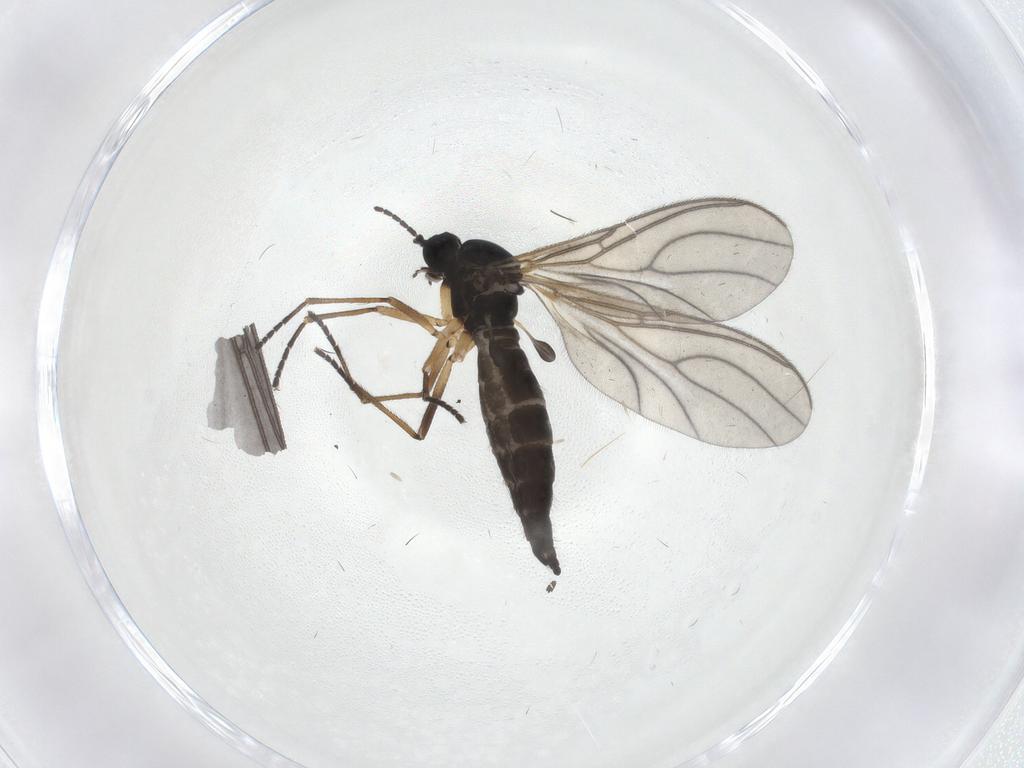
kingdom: Animalia
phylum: Arthropoda
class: Insecta
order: Diptera
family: Sciaridae
